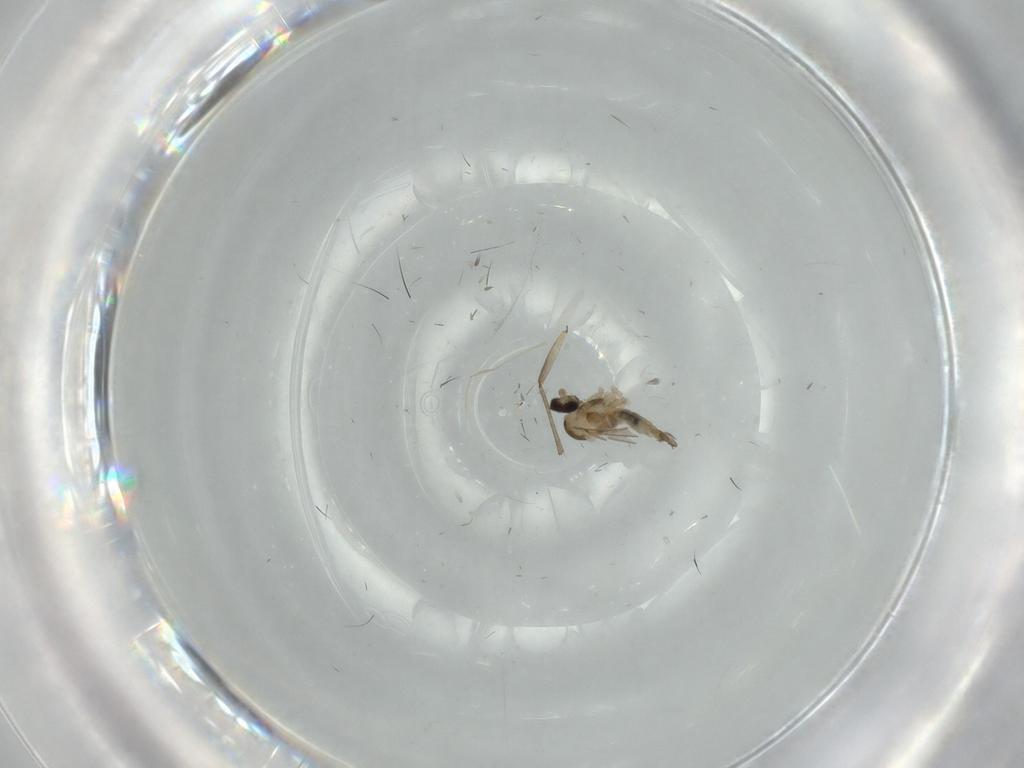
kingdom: Animalia
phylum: Arthropoda
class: Insecta
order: Diptera
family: Cecidomyiidae
